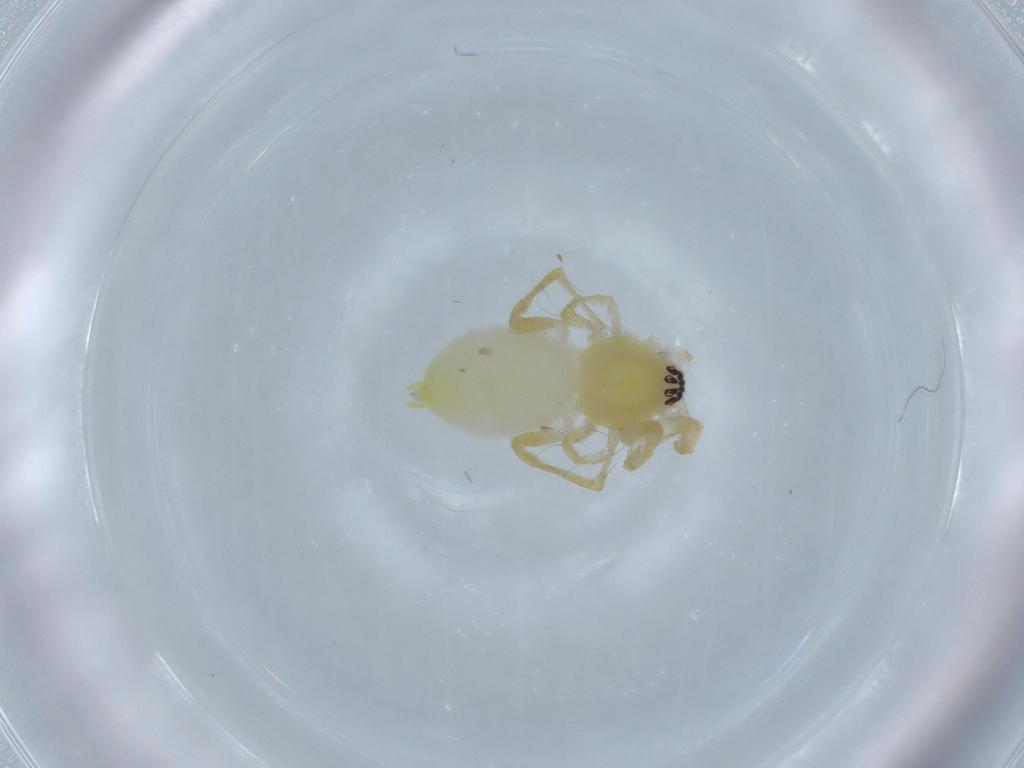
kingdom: Animalia
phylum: Arthropoda
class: Arachnida
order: Araneae
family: Anyphaenidae
